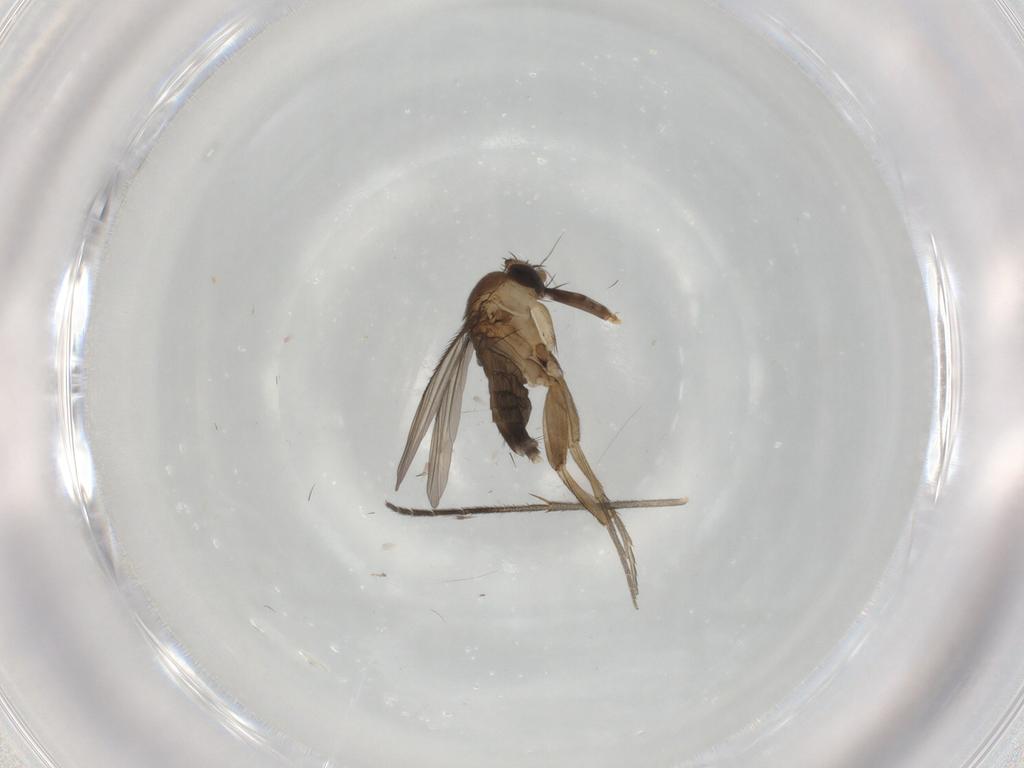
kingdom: Animalia
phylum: Arthropoda
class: Insecta
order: Diptera
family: Phoridae
